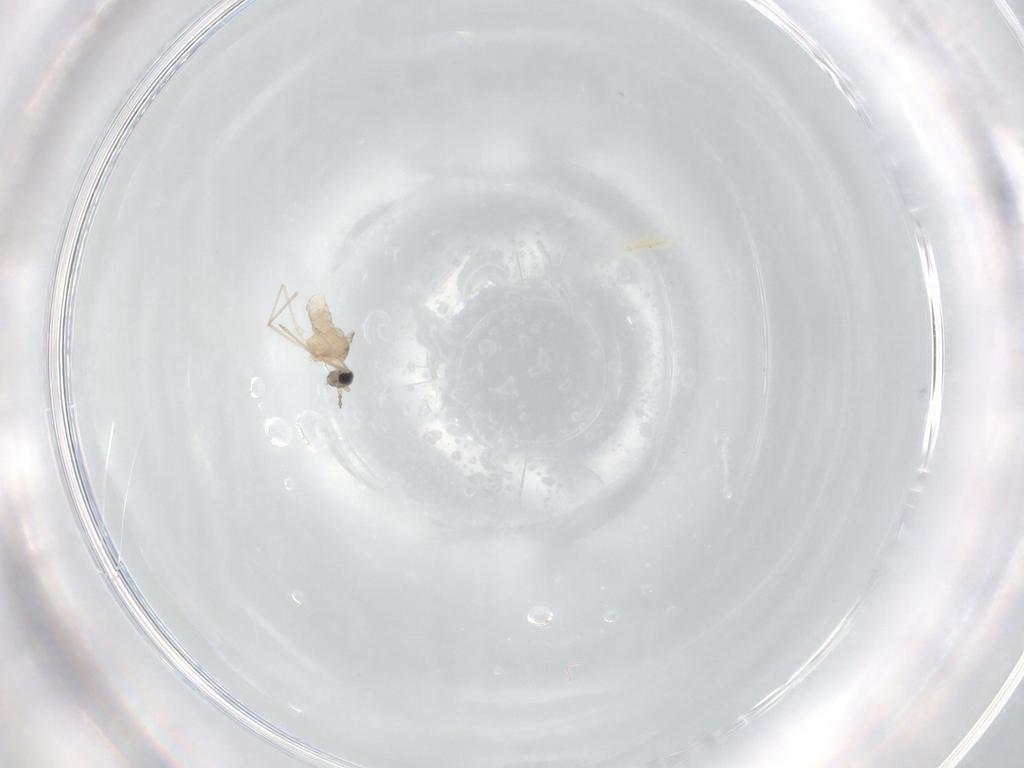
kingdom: Animalia
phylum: Arthropoda
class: Insecta
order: Diptera
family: Cecidomyiidae
